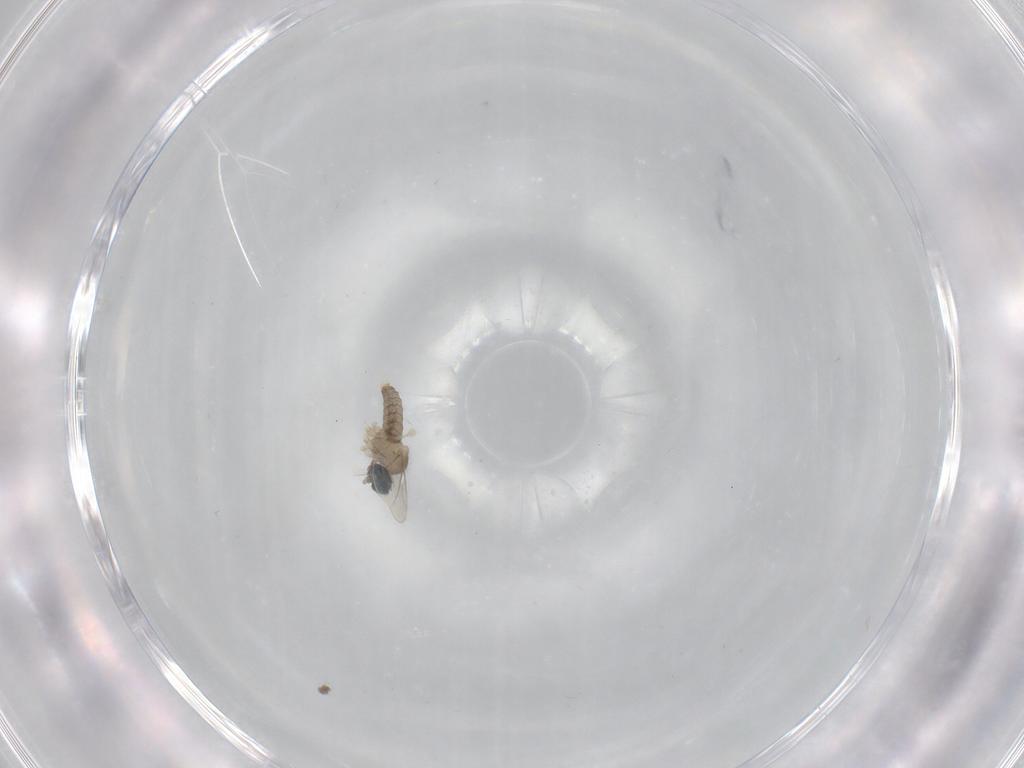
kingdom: Animalia
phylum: Arthropoda
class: Insecta
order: Diptera
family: Cecidomyiidae
